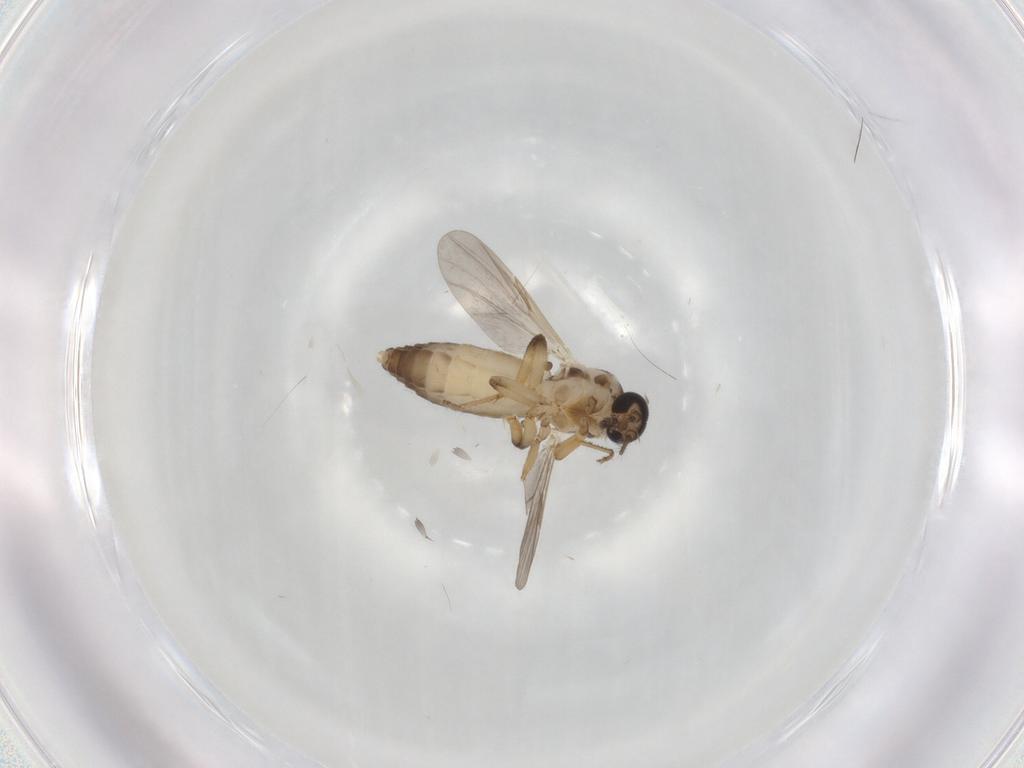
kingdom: Animalia
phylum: Arthropoda
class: Insecta
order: Diptera
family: Ceratopogonidae
